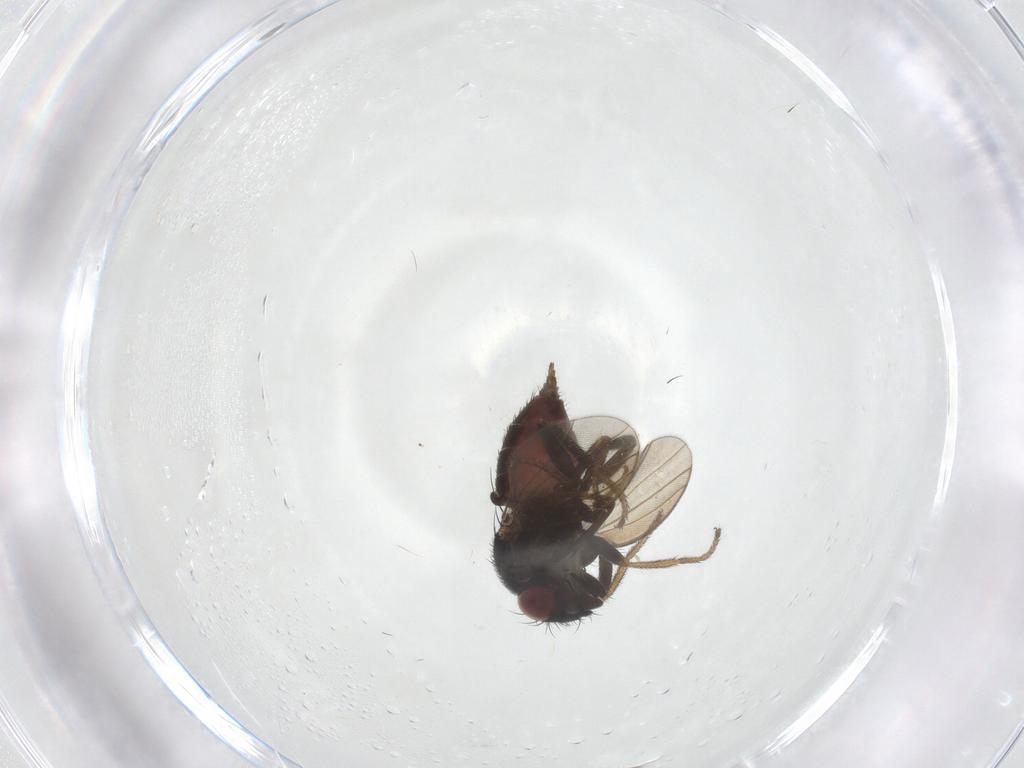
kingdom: Animalia
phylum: Arthropoda
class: Insecta
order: Diptera
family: Milichiidae
